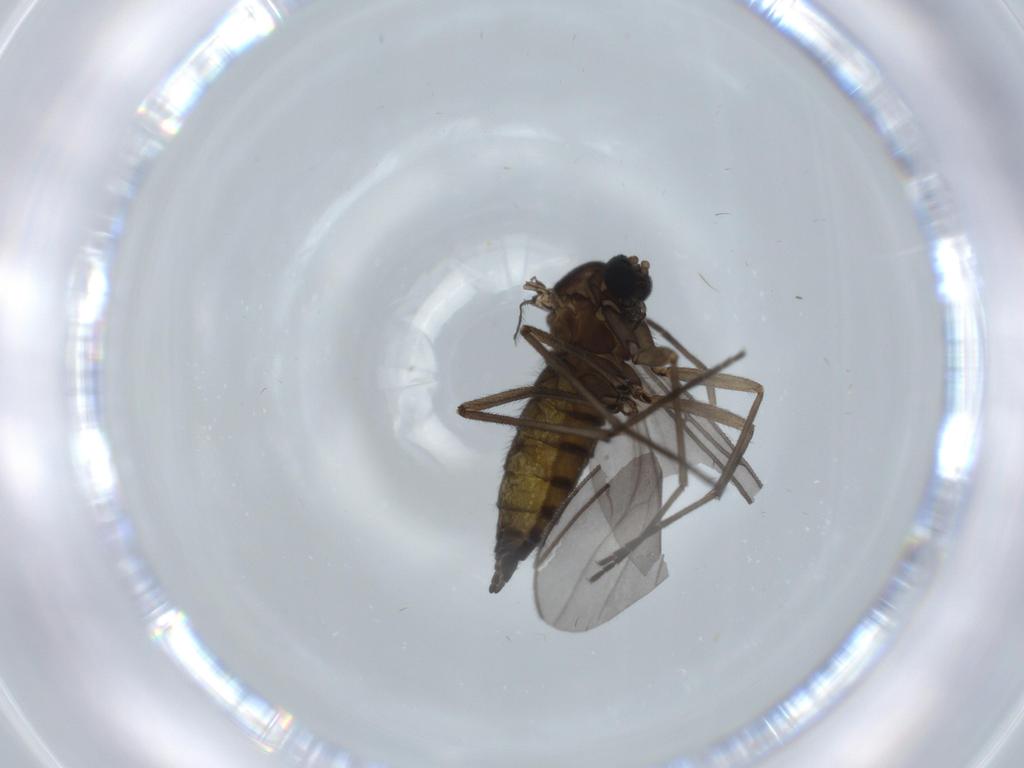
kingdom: Animalia
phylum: Arthropoda
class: Insecta
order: Diptera
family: Sciaridae
